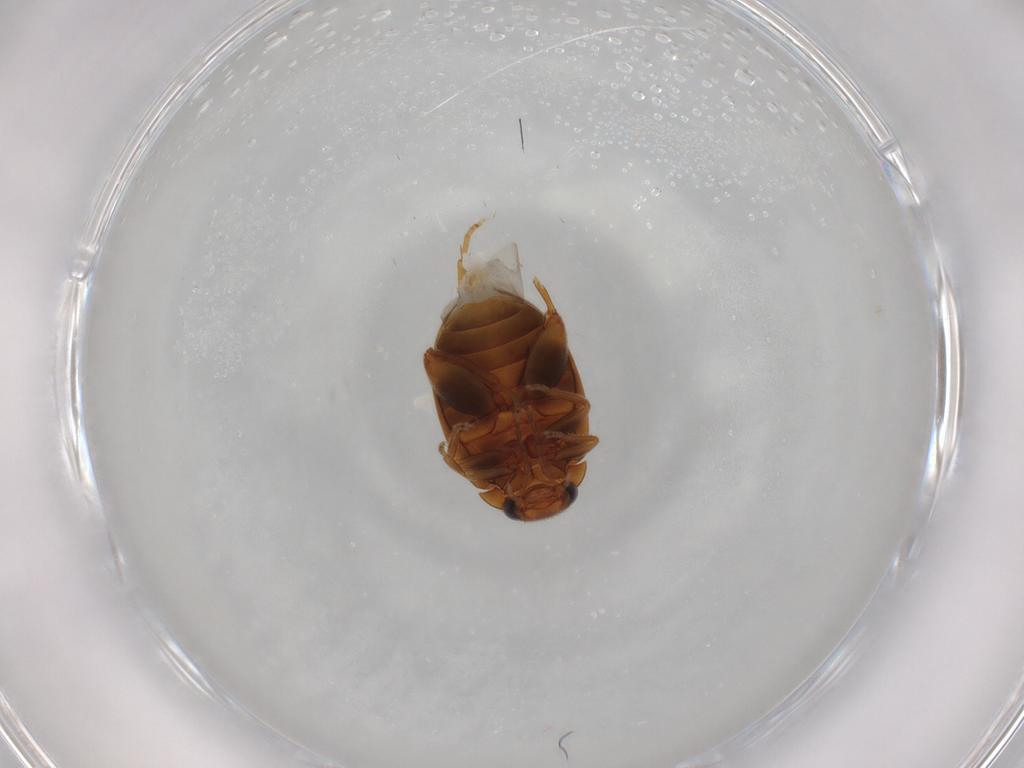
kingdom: Animalia
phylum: Arthropoda
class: Insecta
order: Coleoptera
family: Scirtidae
